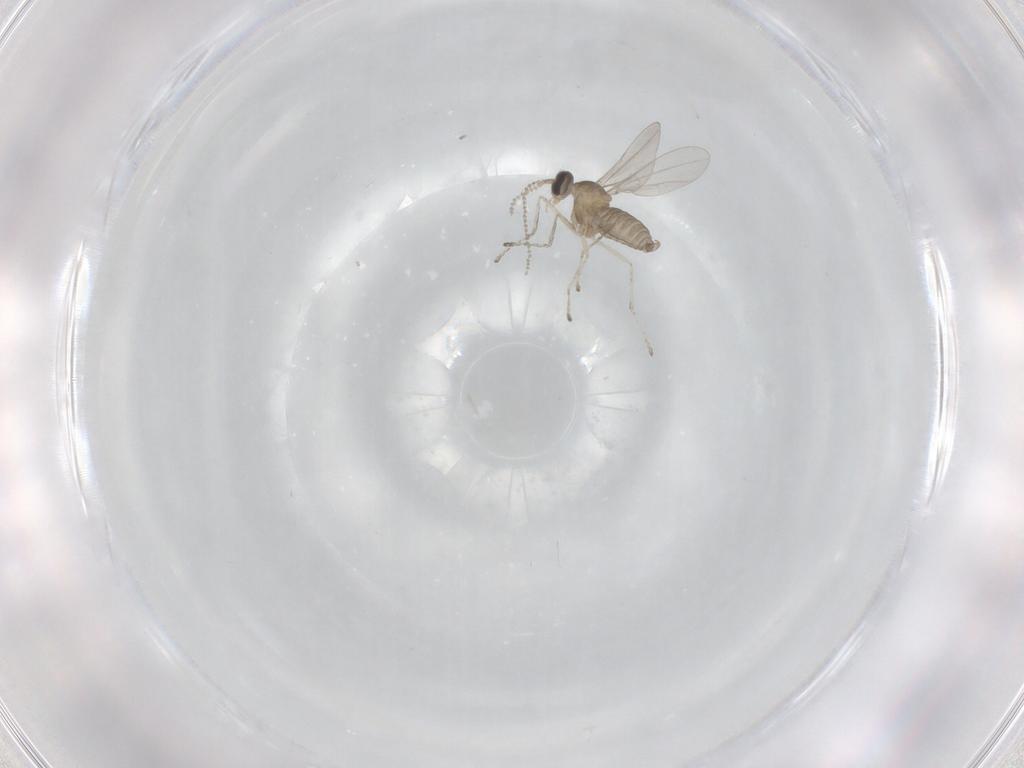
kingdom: Animalia
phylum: Arthropoda
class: Insecta
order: Diptera
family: Cecidomyiidae
